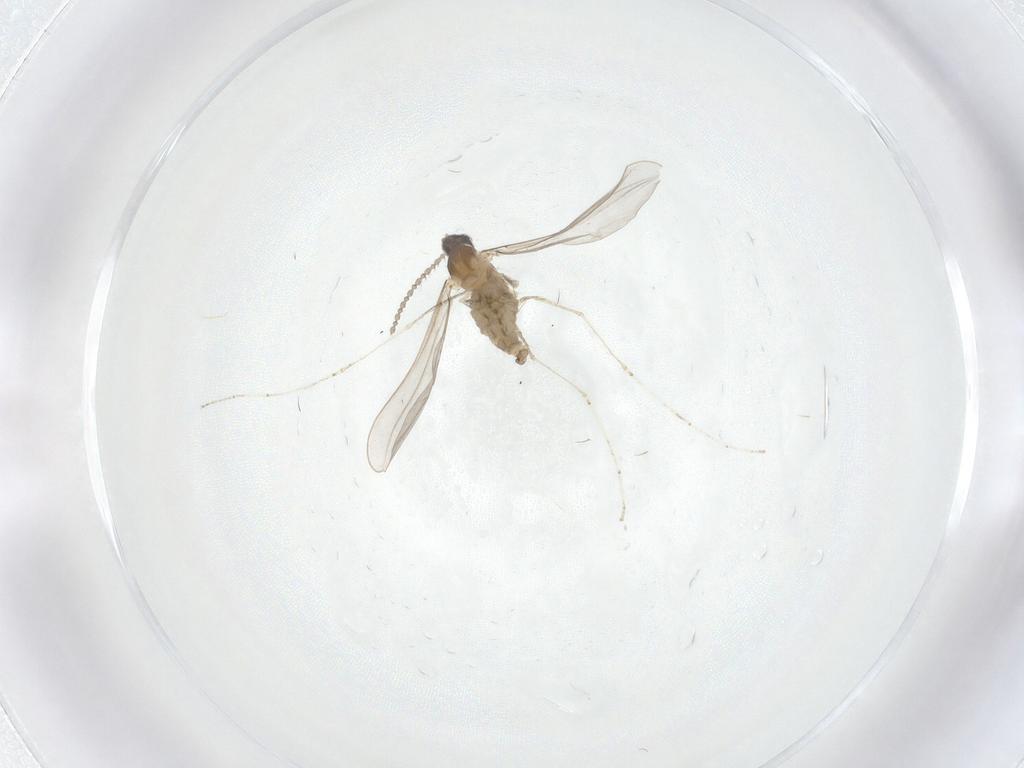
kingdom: Animalia
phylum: Arthropoda
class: Insecta
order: Diptera
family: Cecidomyiidae
